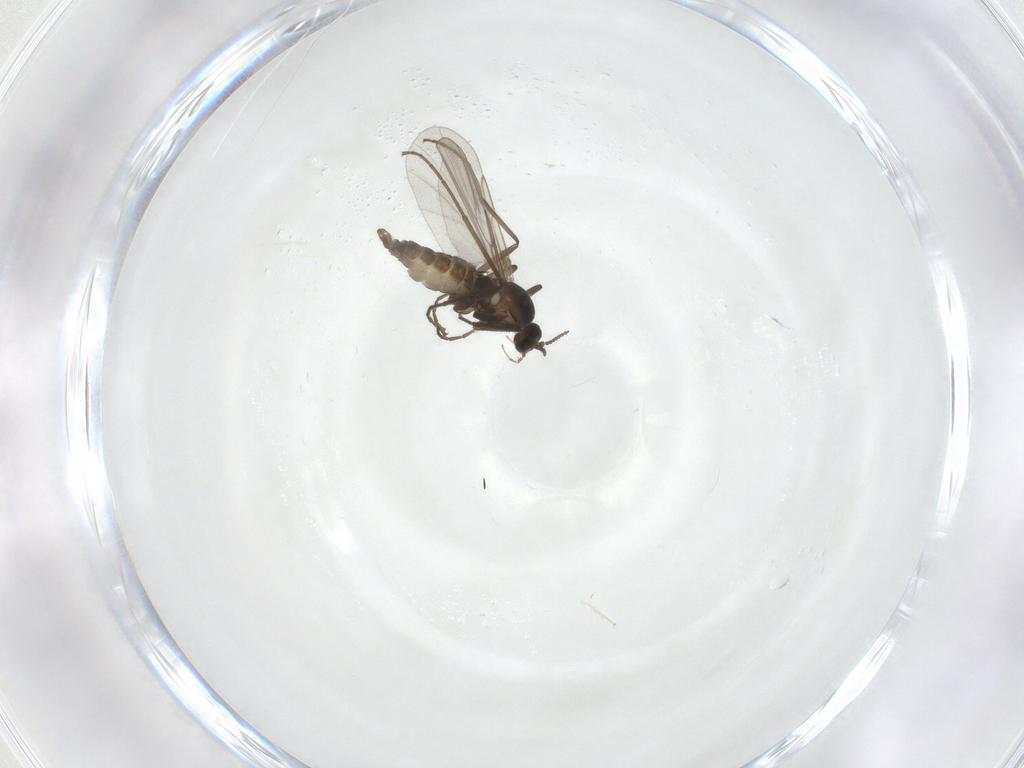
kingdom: Animalia
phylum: Arthropoda
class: Insecta
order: Diptera
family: Cecidomyiidae
